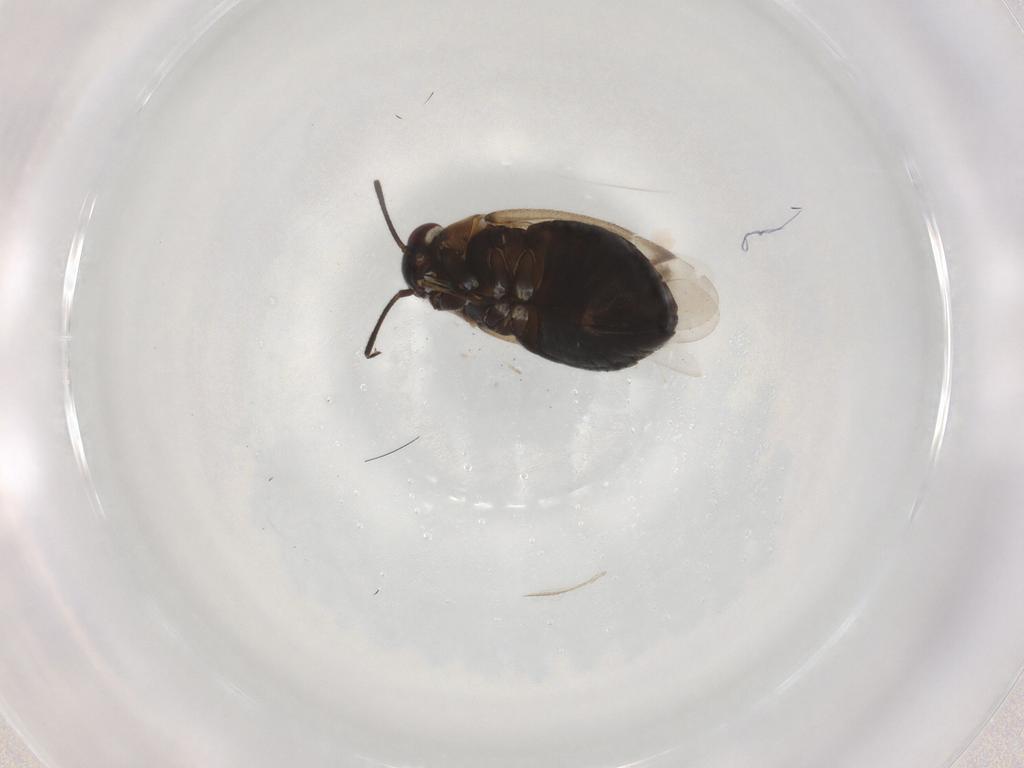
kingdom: Animalia
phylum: Arthropoda
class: Insecta
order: Hemiptera
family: Miridae
